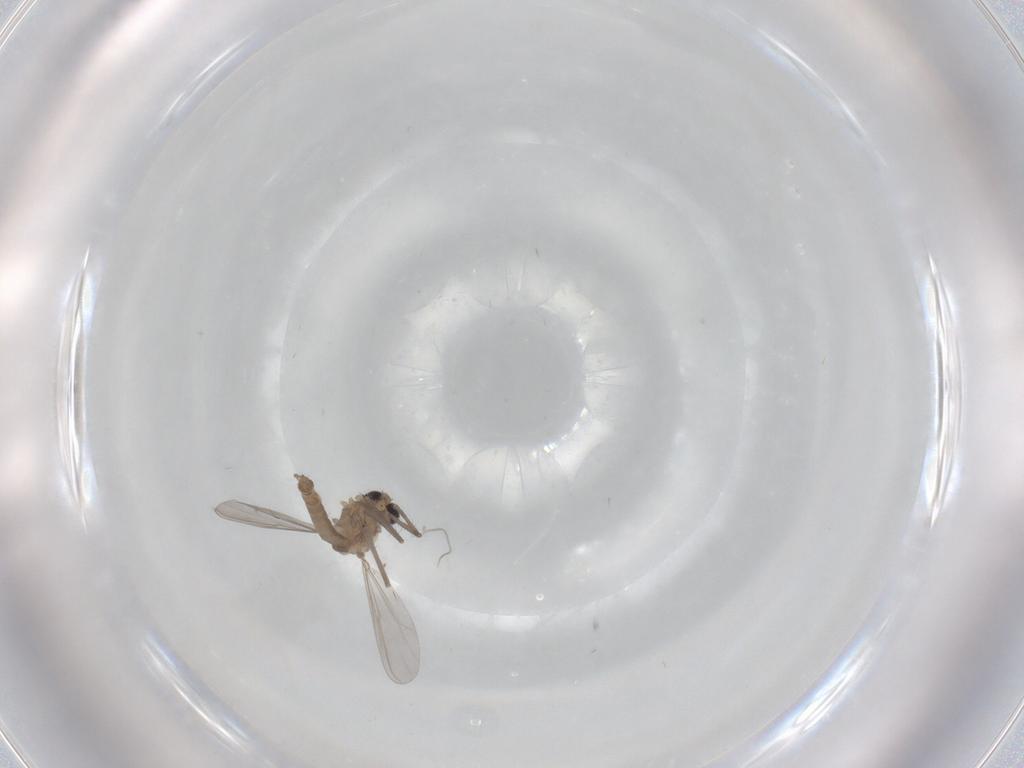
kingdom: Animalia
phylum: Arthropoda
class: Insecta
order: Diptera
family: Chironomidae
